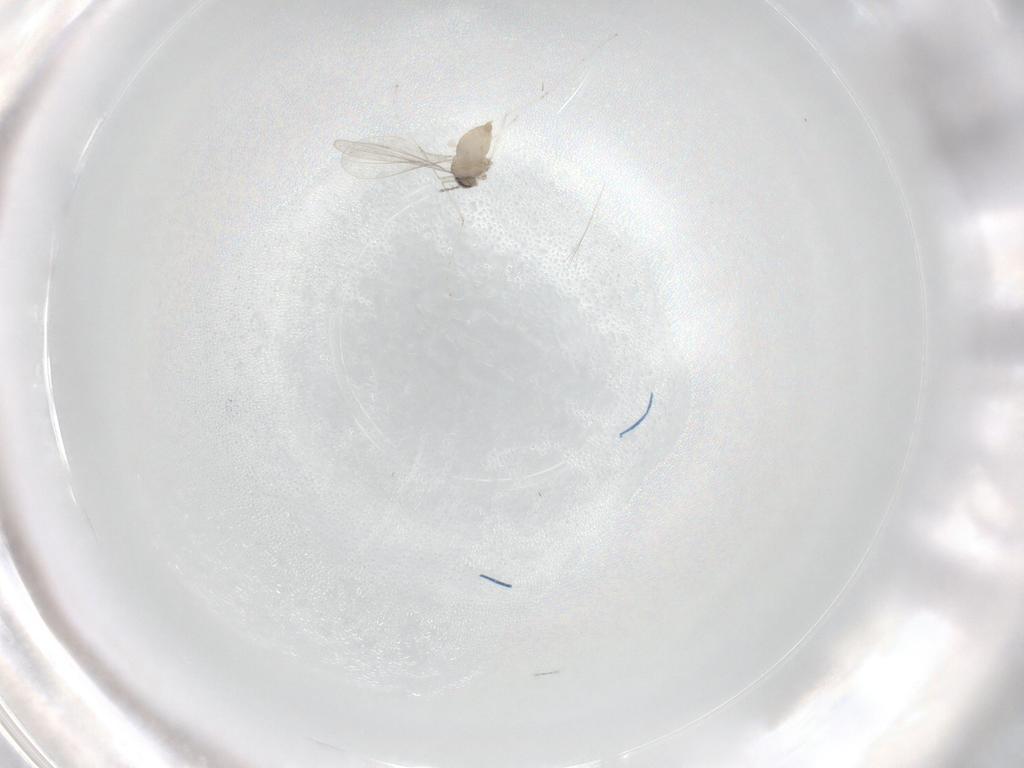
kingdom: Animalia
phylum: Arthropoda
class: Insecta
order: Diptera
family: Cecidomyiidae
